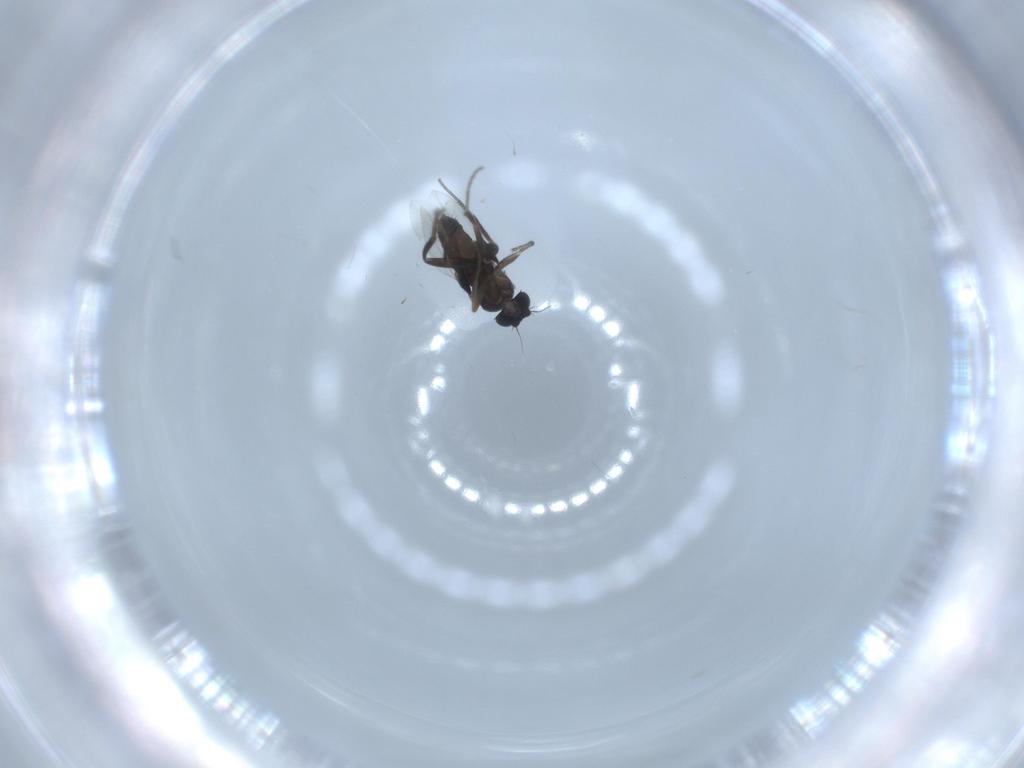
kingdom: Animalia
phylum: Arthropoda
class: Insecta
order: Diptera
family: Phoridae
